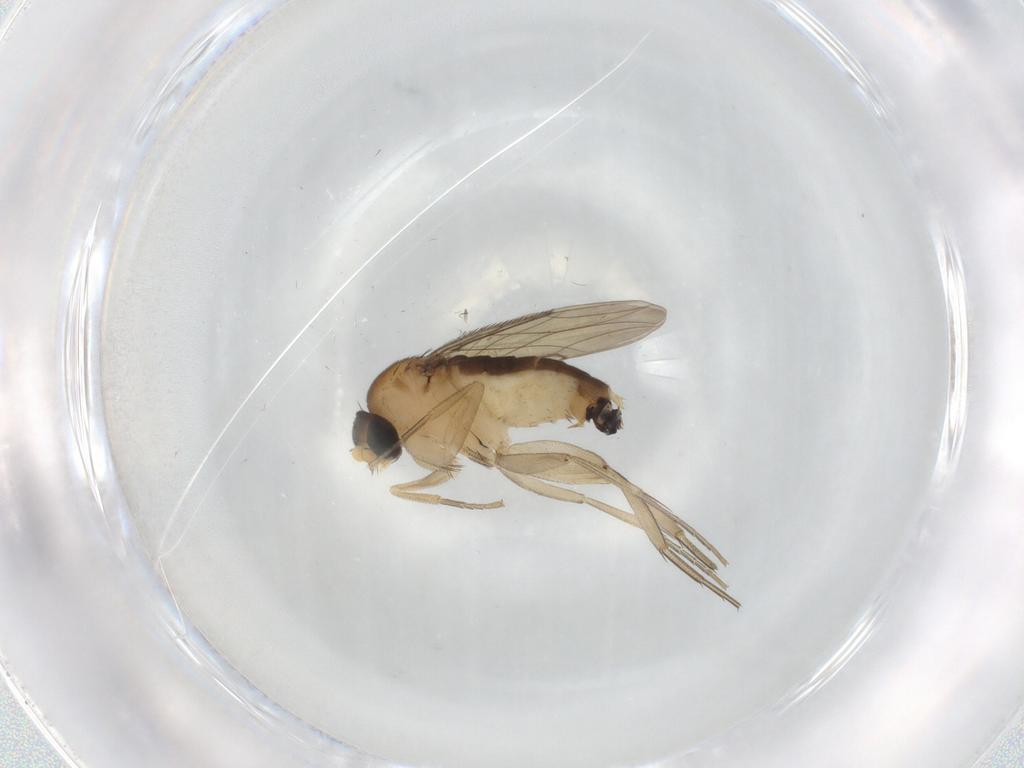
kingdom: Animalia
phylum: Arthropoda
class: Insecta
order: Diptera
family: Phoridae
